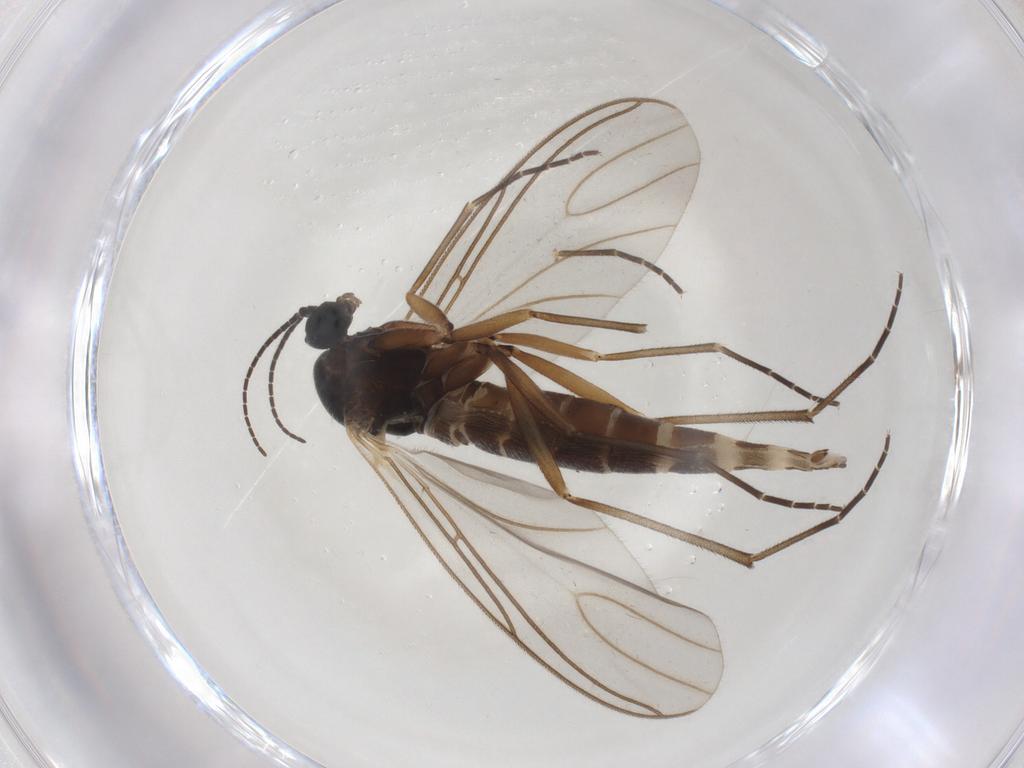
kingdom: Animalia
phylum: Arthropoda
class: Insecta
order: Diptera
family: Sciaridae
